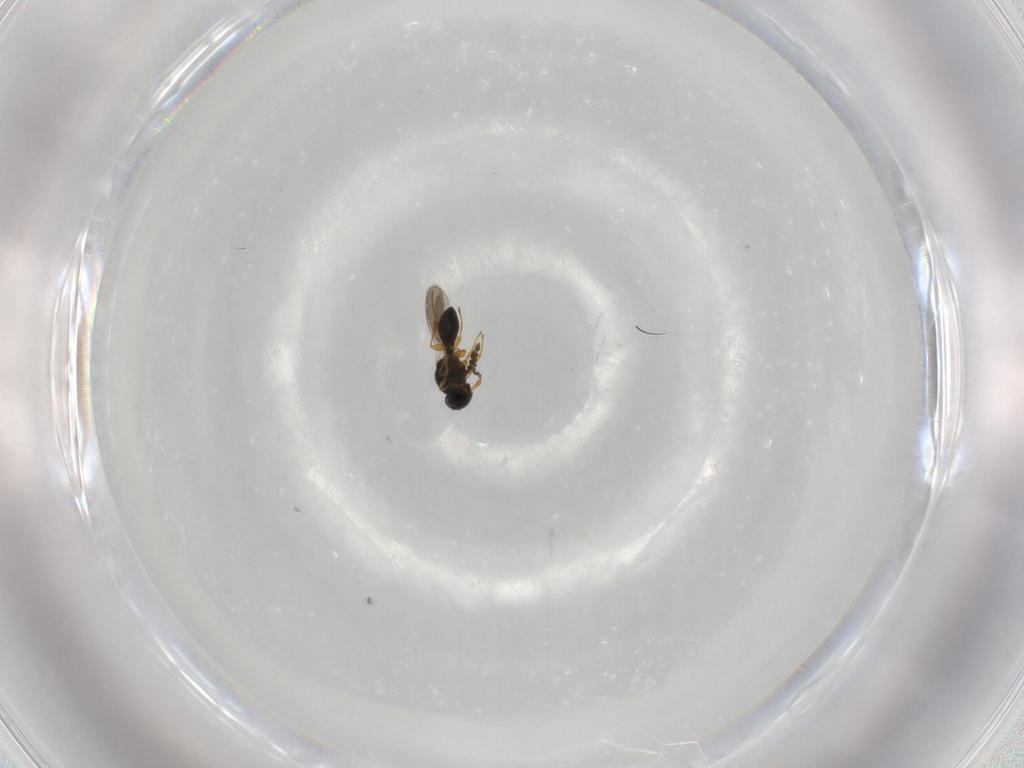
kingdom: Animalia
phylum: Arthropoda
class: Insecta
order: Hymenoptera
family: Platygastridae
